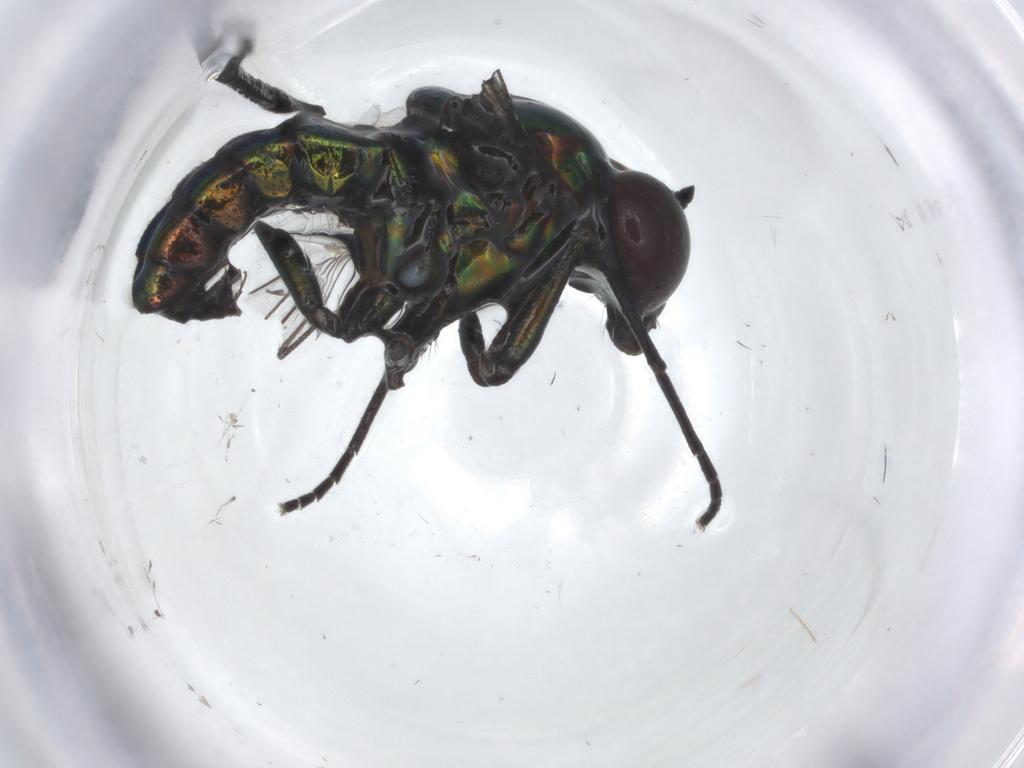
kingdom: Animalia
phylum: Arthropoda
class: Insecta
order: Diptera
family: Dolichopodidae
